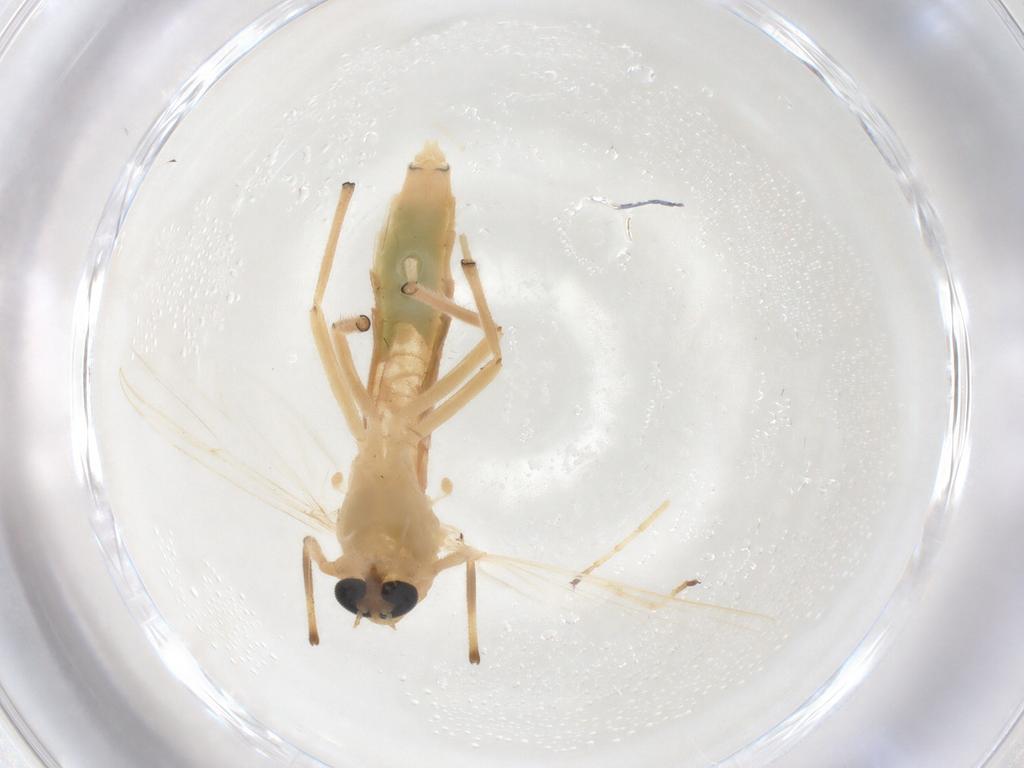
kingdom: Animalia
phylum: Arthropoda
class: Insecta
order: Diptera
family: Chironomidae
